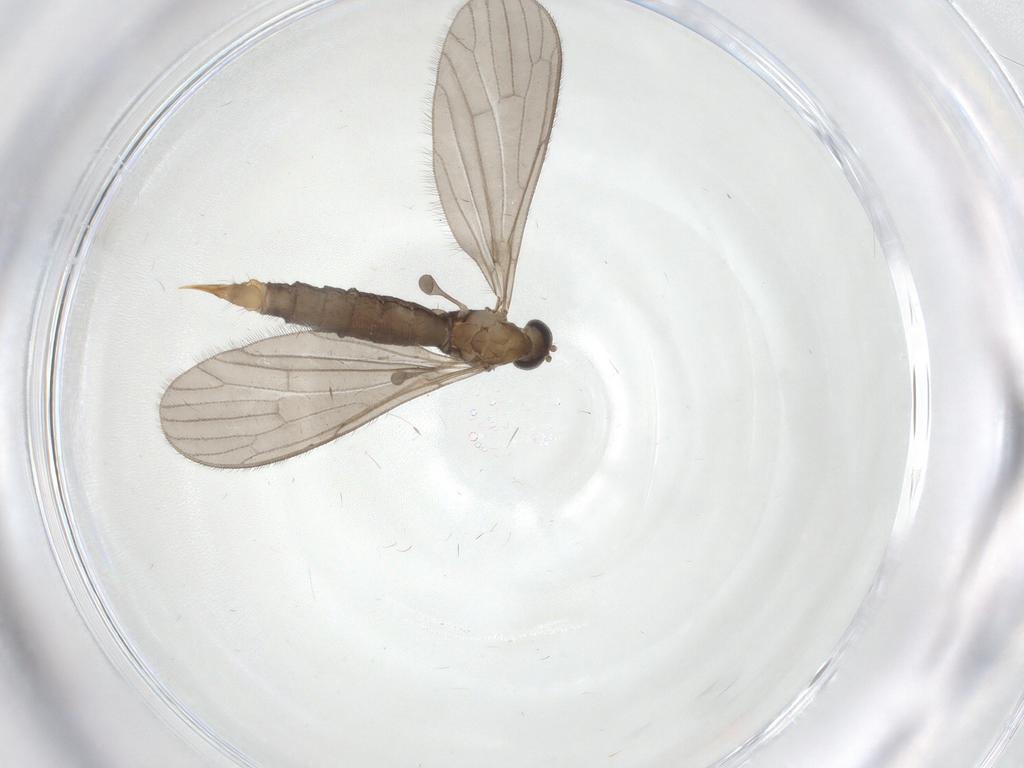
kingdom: Animalia
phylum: Arthropoda
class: Insecta
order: Diptera
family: Limoniidae
